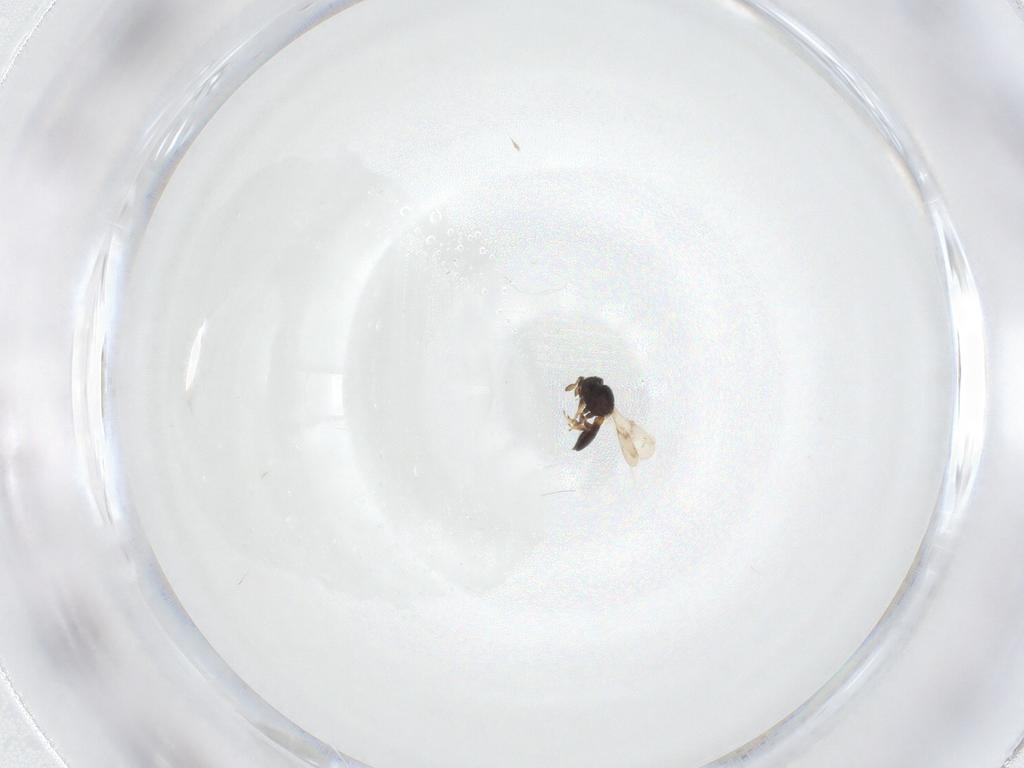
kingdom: Animalia
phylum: Arthropoda
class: Insecta
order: Hymenoptera
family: Scelionidae
